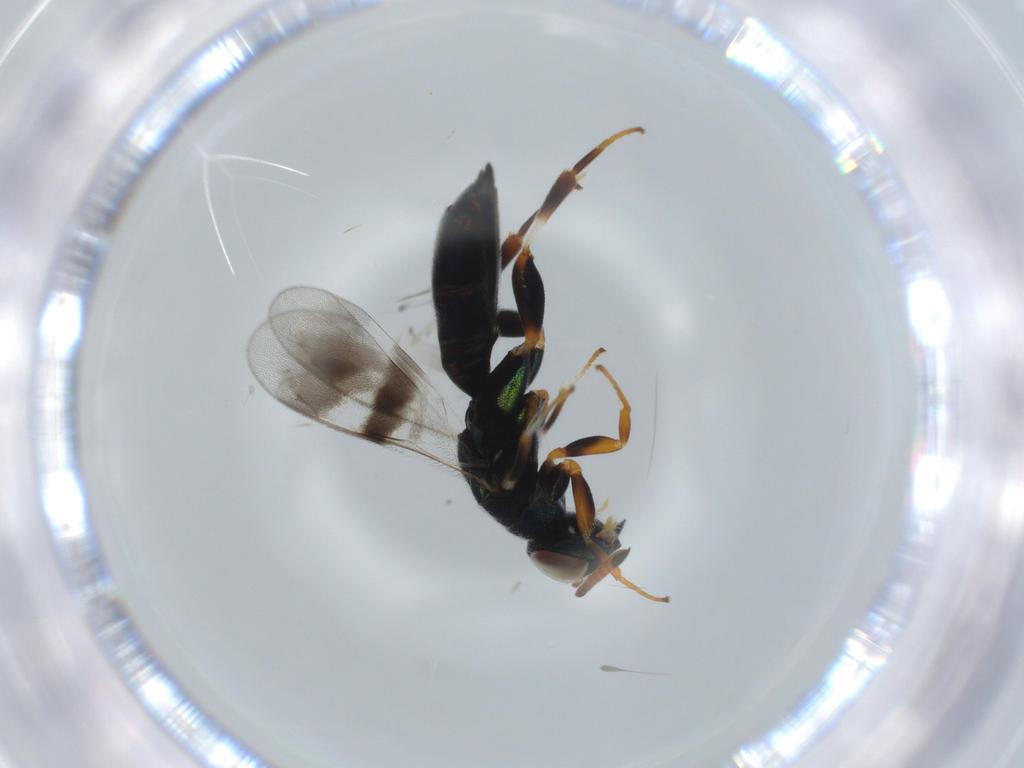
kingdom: Animalia
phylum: Arthropoda
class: Insecta
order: Hymenoptera
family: Cleonyminae
